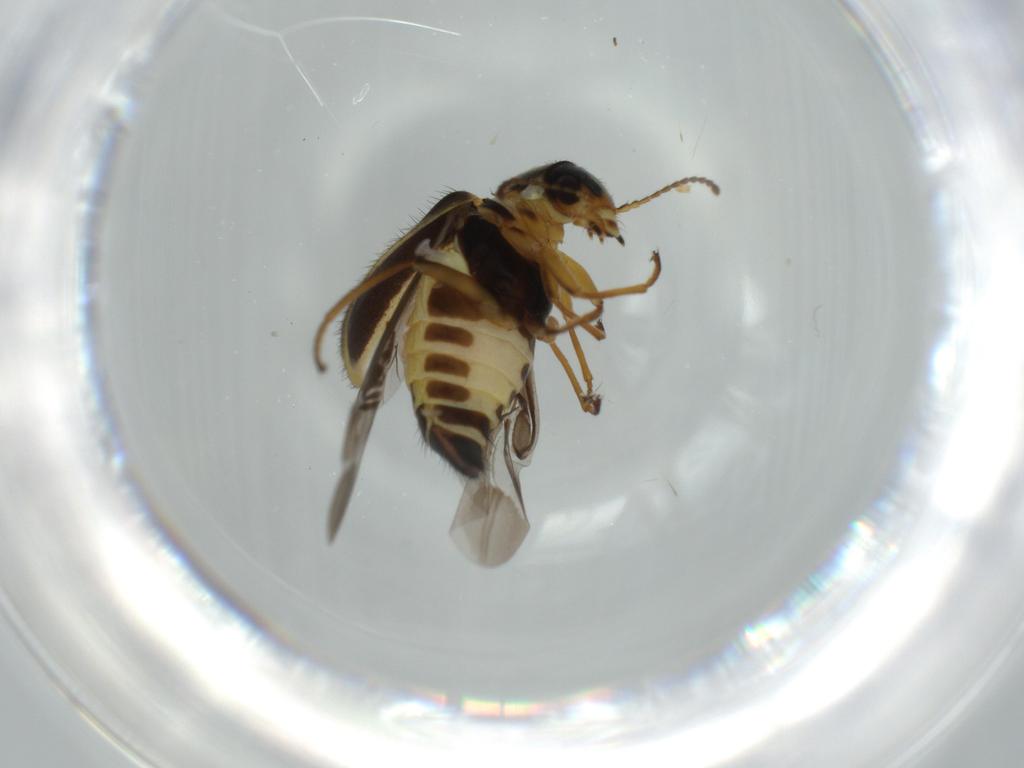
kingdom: Animalia
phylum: Arthropoda
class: Insecta
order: Coleoptera
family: Melyridae
